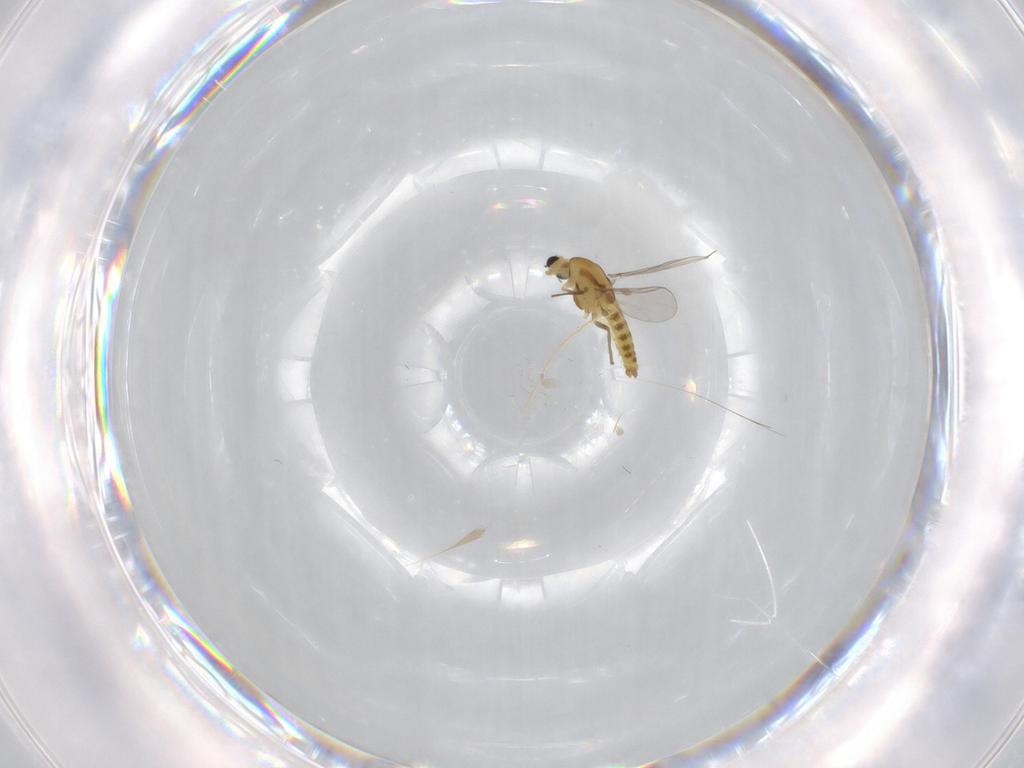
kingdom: Animalia
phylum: Arthropoda
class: Insecta
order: Diptera
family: Chironomidae
